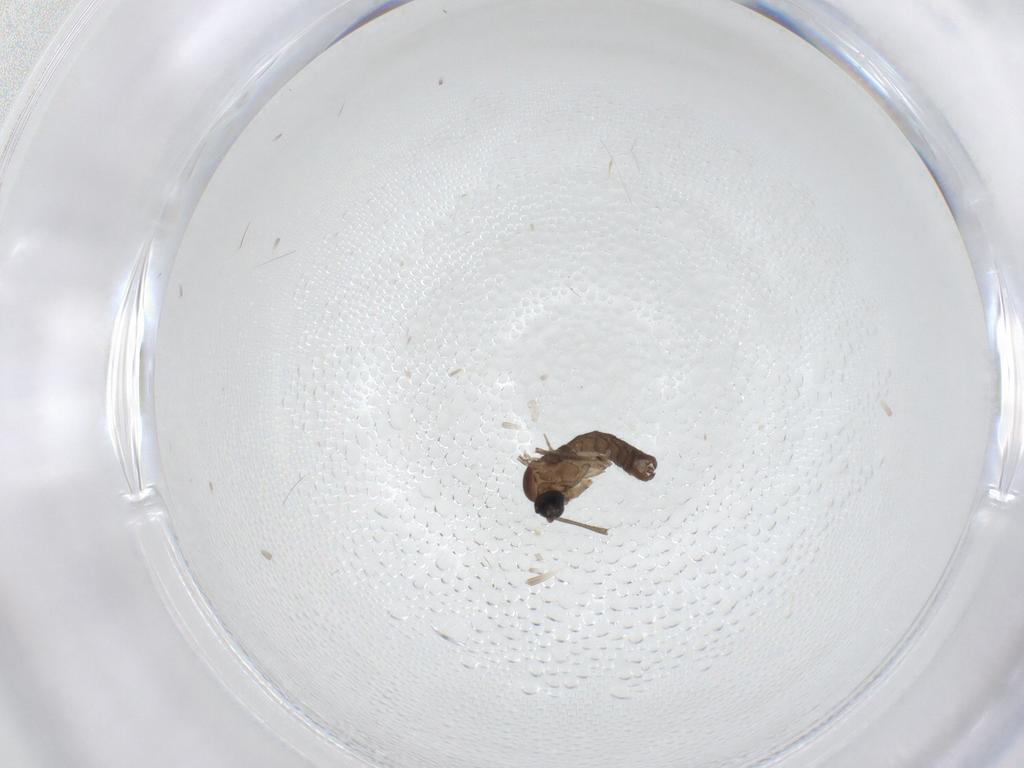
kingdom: Animalia
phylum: Arthropoda
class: Insecta
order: Diptera
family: Sciaridae
